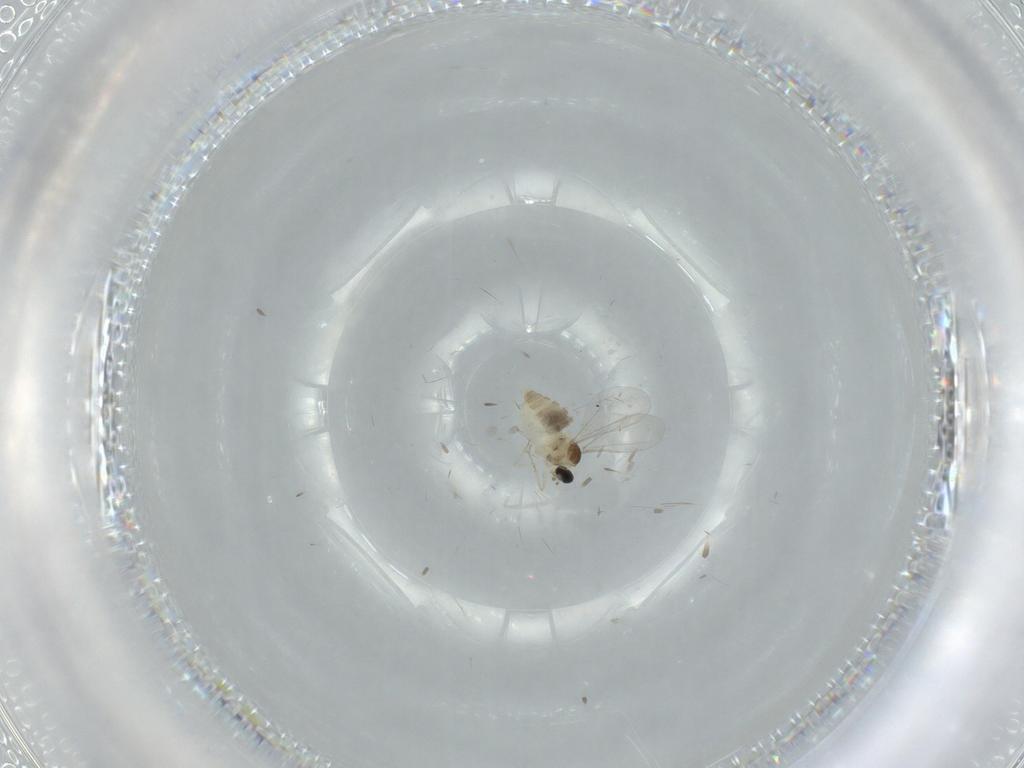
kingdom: Animalia
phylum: Arthropoda
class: Insecta
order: Diptera
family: Cecidomyiidae
